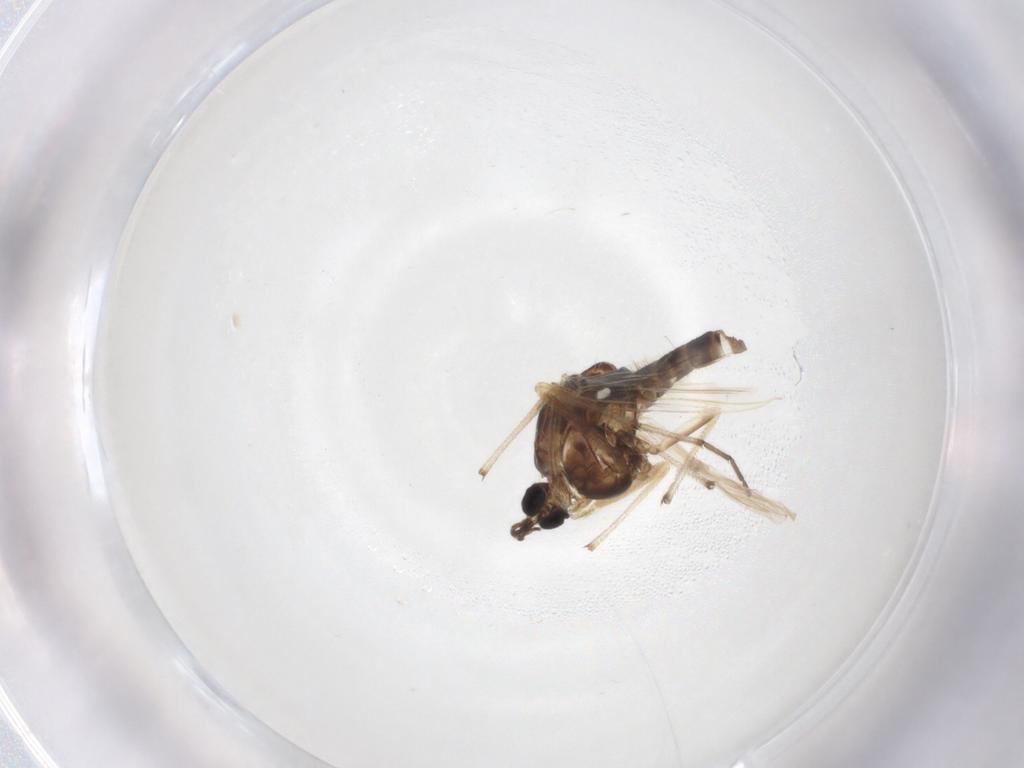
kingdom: Animalia
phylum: Arthropoda
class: Insecta
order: Diptera
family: Chironomidae
